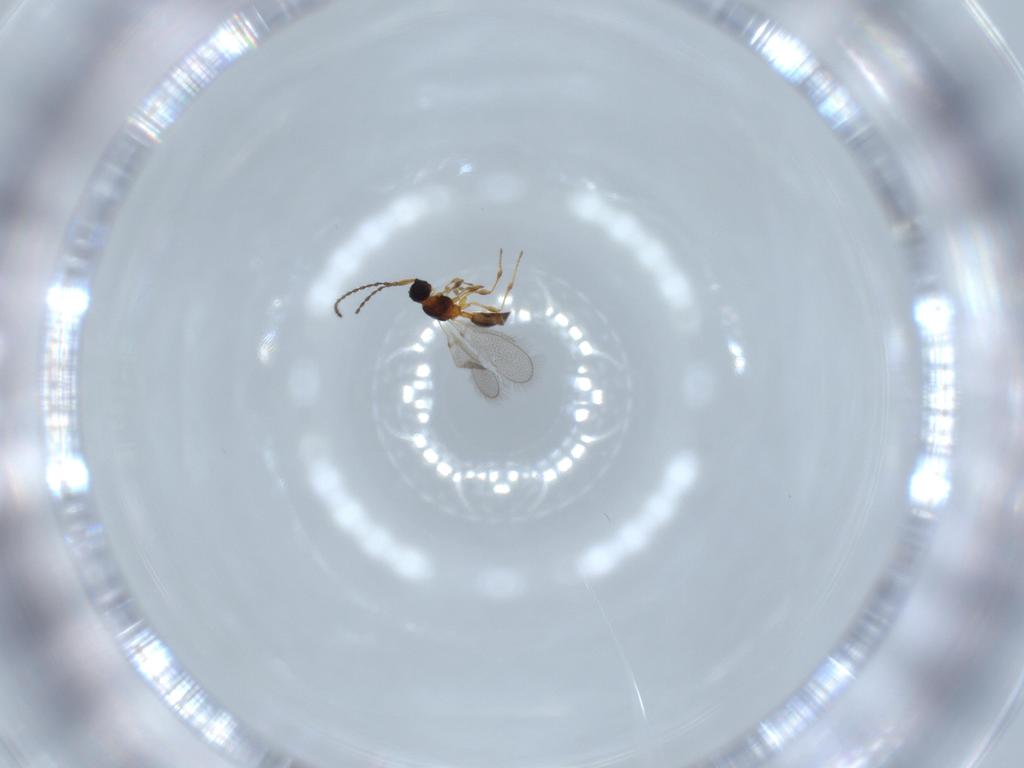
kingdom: Animalia
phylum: Arthropoda
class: Insecta
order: Hymenoptera
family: Diapriidae
